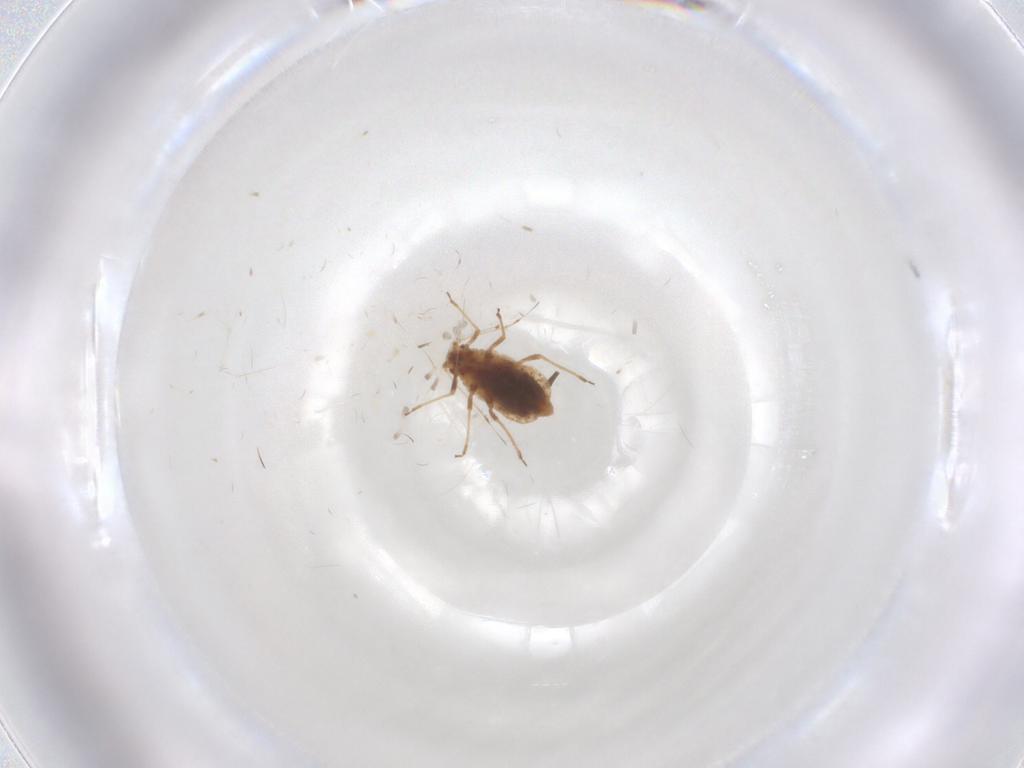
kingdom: Animalia
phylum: Arthropoda
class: Insecta
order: Hemiptera
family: Aphididae
